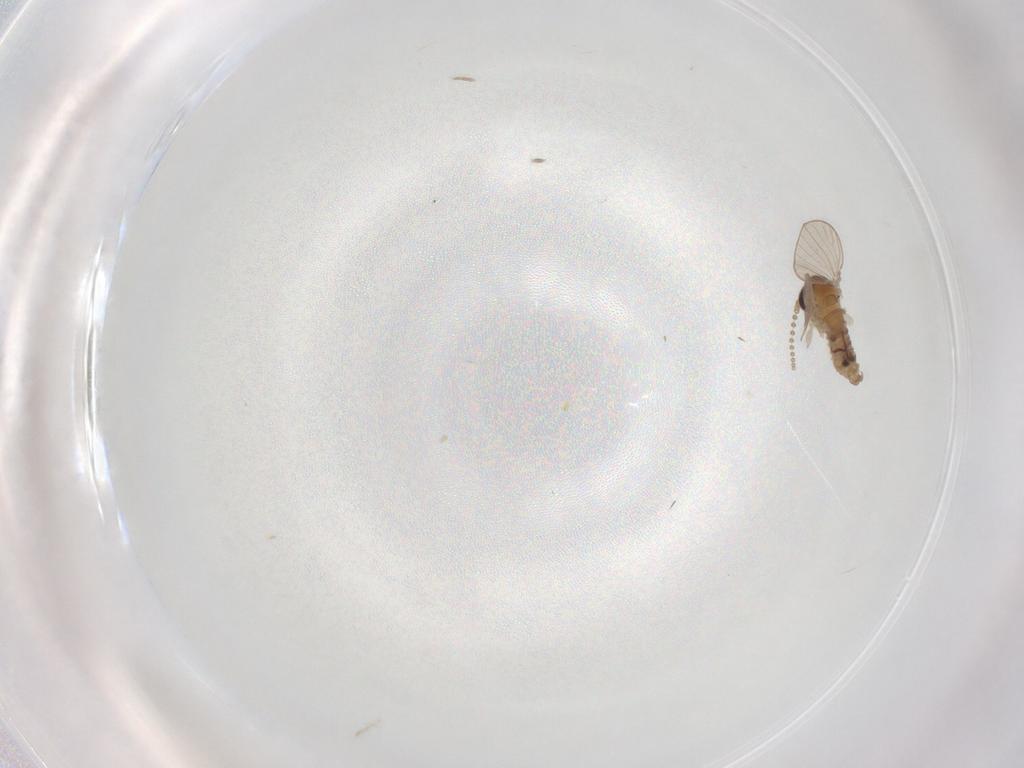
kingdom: Animalia
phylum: Arthropoda
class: Insecta
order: Diptera
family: Psychodidae
